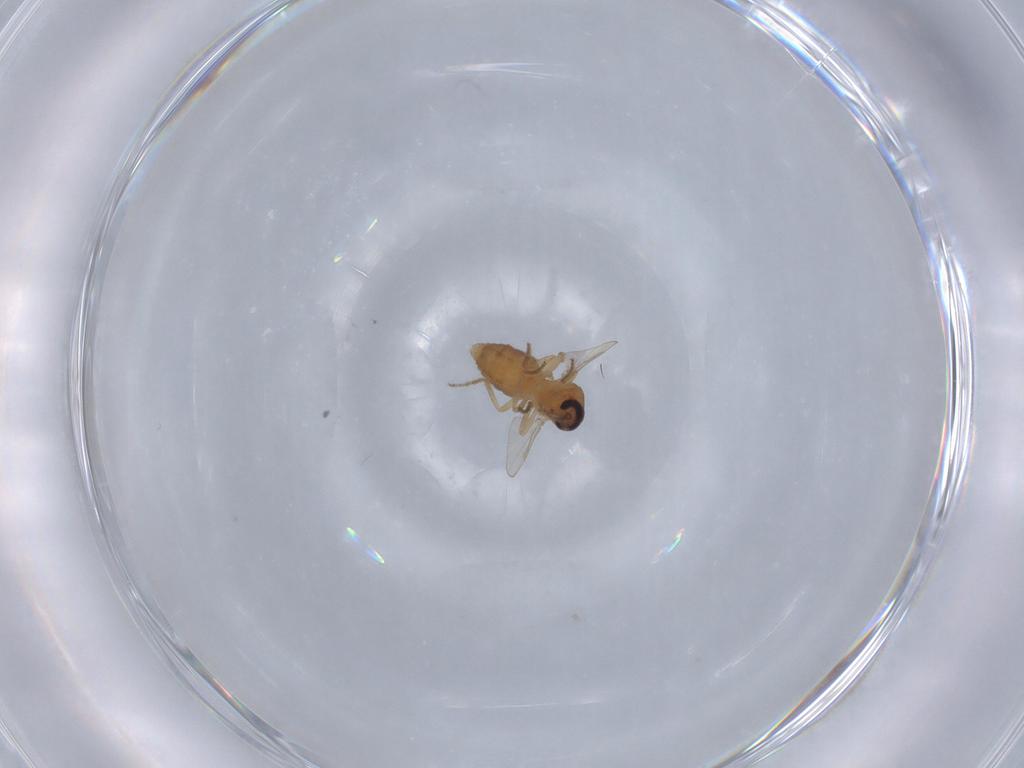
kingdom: Animalia
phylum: Arthropoda
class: Insecta
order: Diptera
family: Ceratopogonidae
